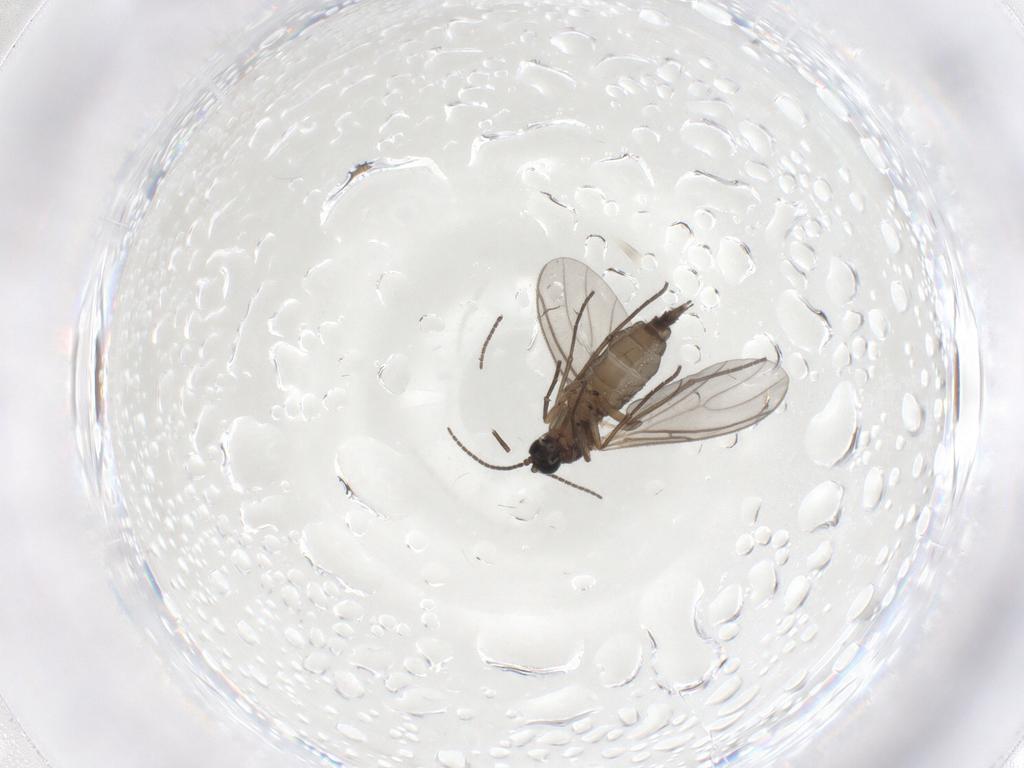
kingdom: Animalia
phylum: Arthropoda
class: Insecta
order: Diptera
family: Sciaridae
